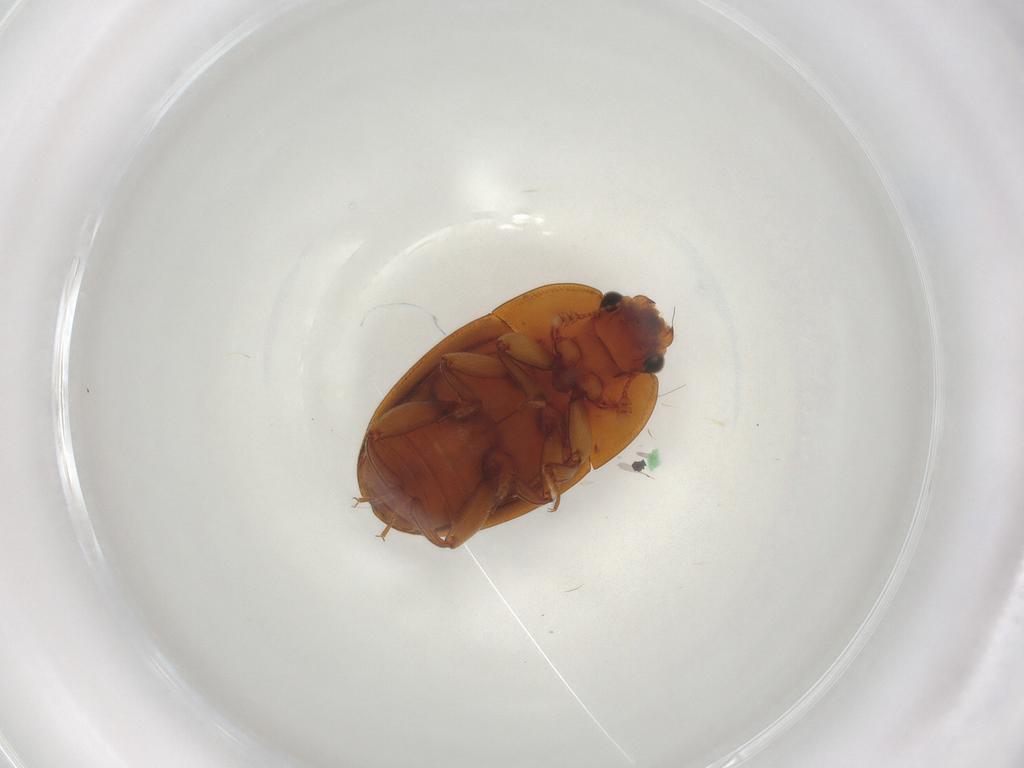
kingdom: Animalia
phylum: Arthropoda
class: Insecta
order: Coleoptera
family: Nitidulidae
